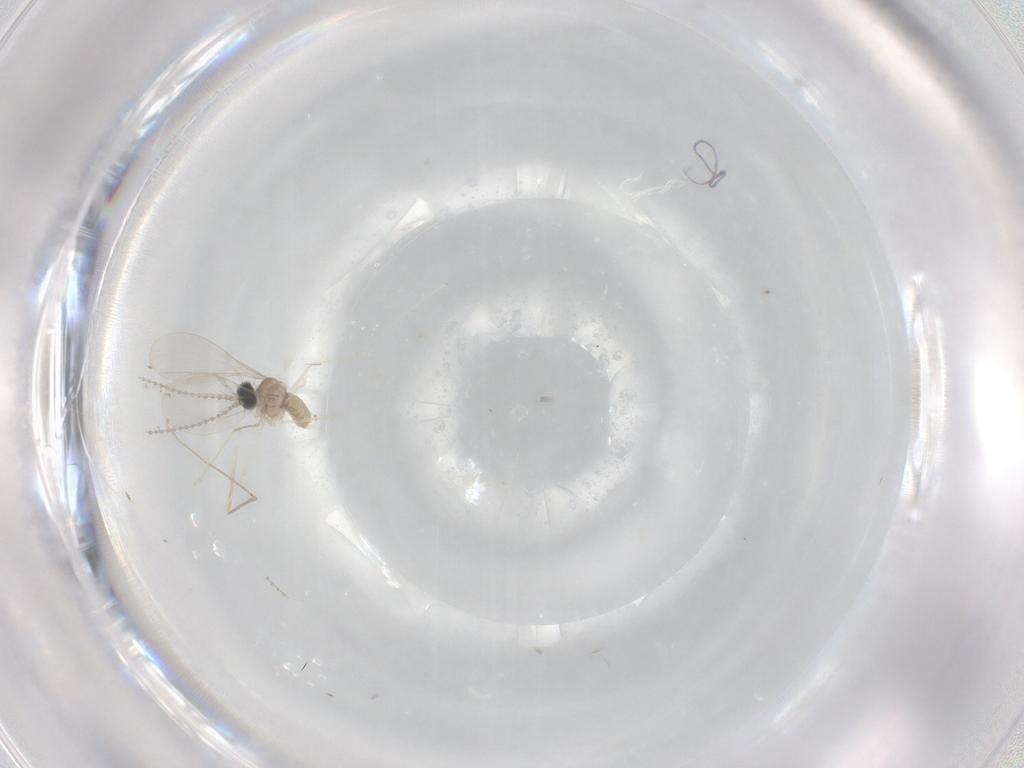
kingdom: Animalia
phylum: Arthropoda
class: Insecta
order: Diptera
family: Cecidomyiidae
